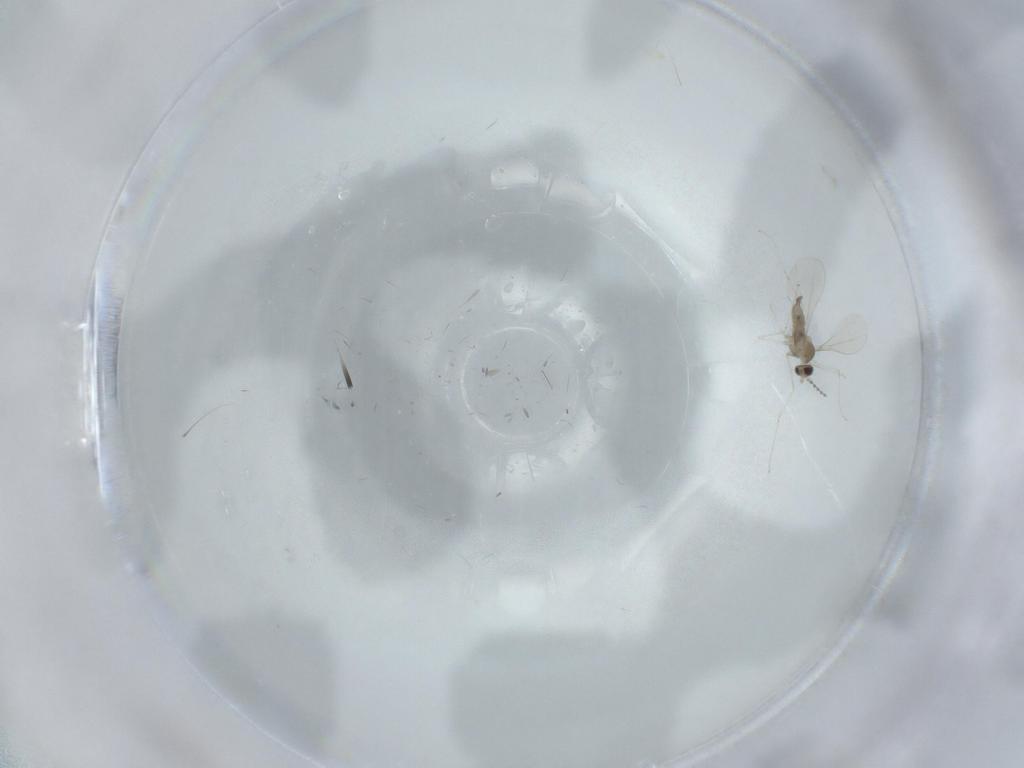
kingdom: Animalia
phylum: Arthropoda
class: Insecta
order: Diptera
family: Cecidomyiidae
